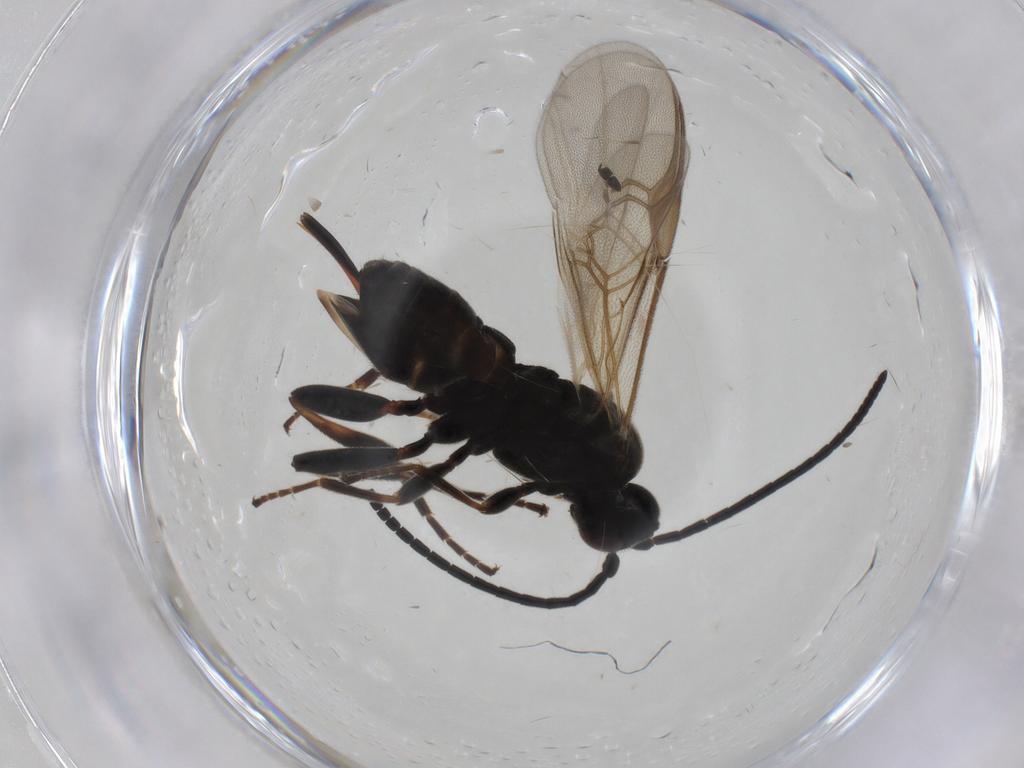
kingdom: Animalia
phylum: Arthropoda
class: Insecta
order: Hymenoptera
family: Braconidae
